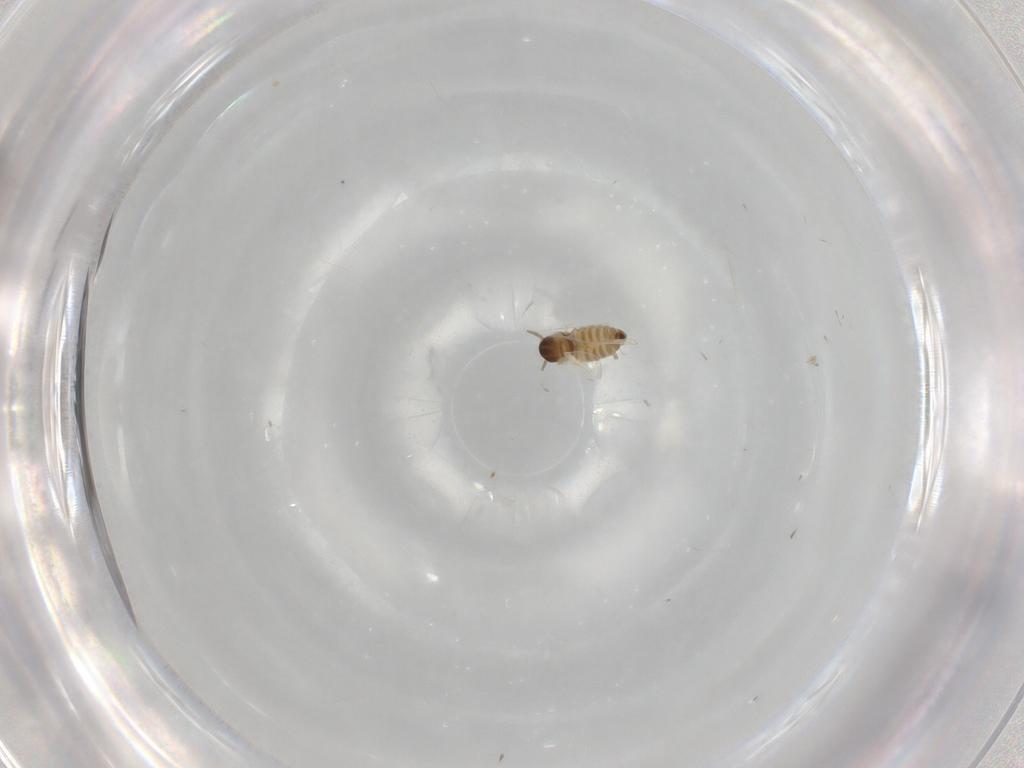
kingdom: Animalia
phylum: Arthropoda
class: Insecta
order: Diptera
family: Cecidomyiidae
